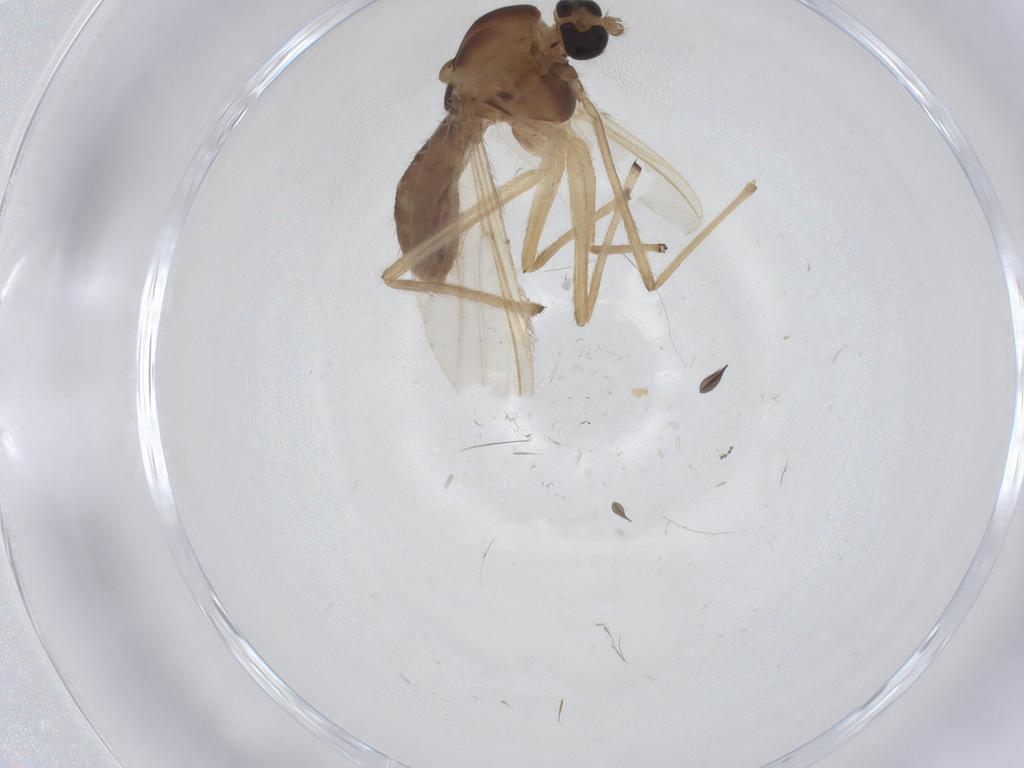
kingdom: Animalia
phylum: Arthropoda
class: Insecta
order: Diptera
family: Chironomidae
